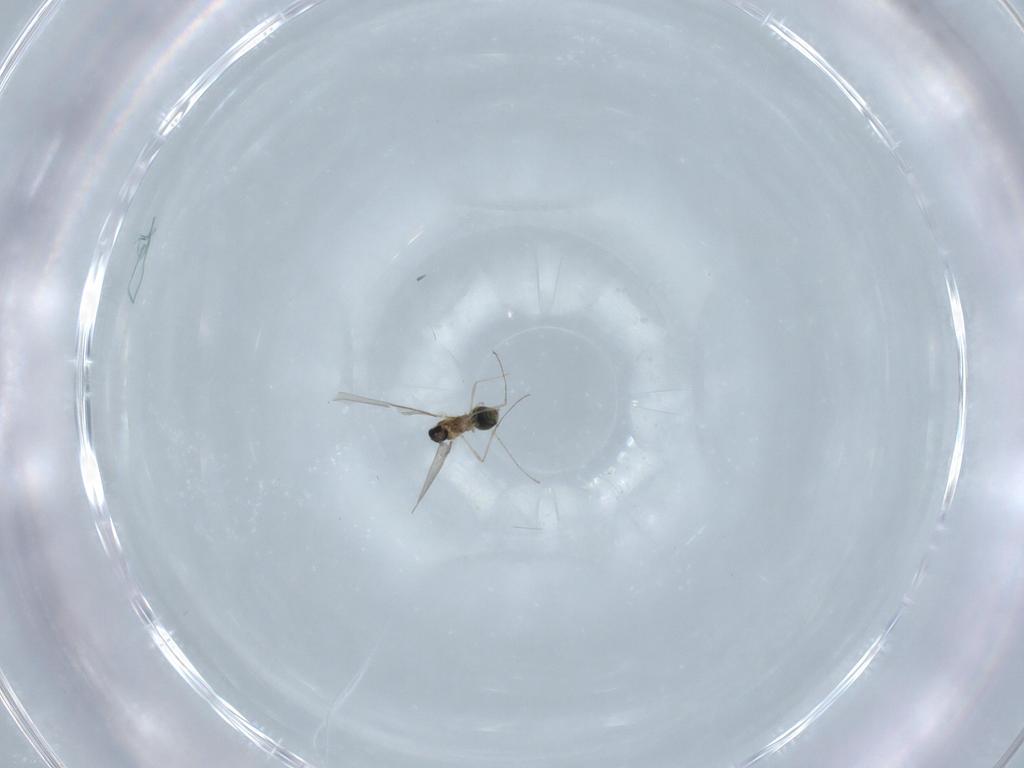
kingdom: Animalia
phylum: Arthropoda
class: Insecta
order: Diptera
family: Cecidomyiidae
